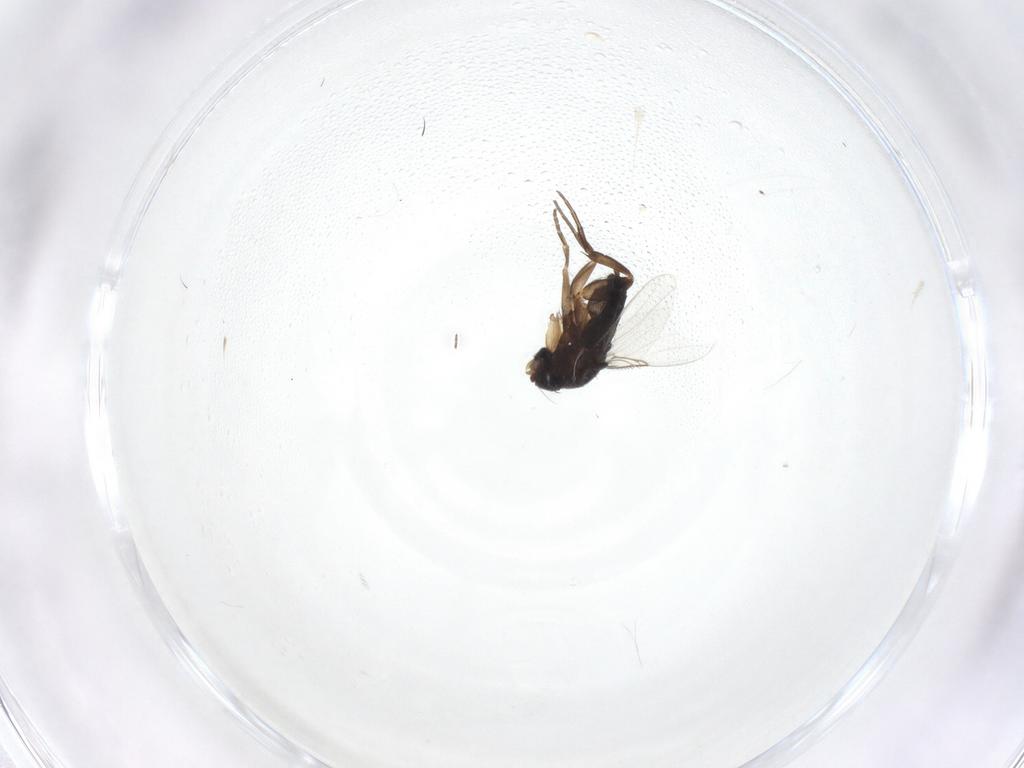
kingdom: Animalia
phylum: Arthropoda
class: Insecta
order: Diptera
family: Phoridae
